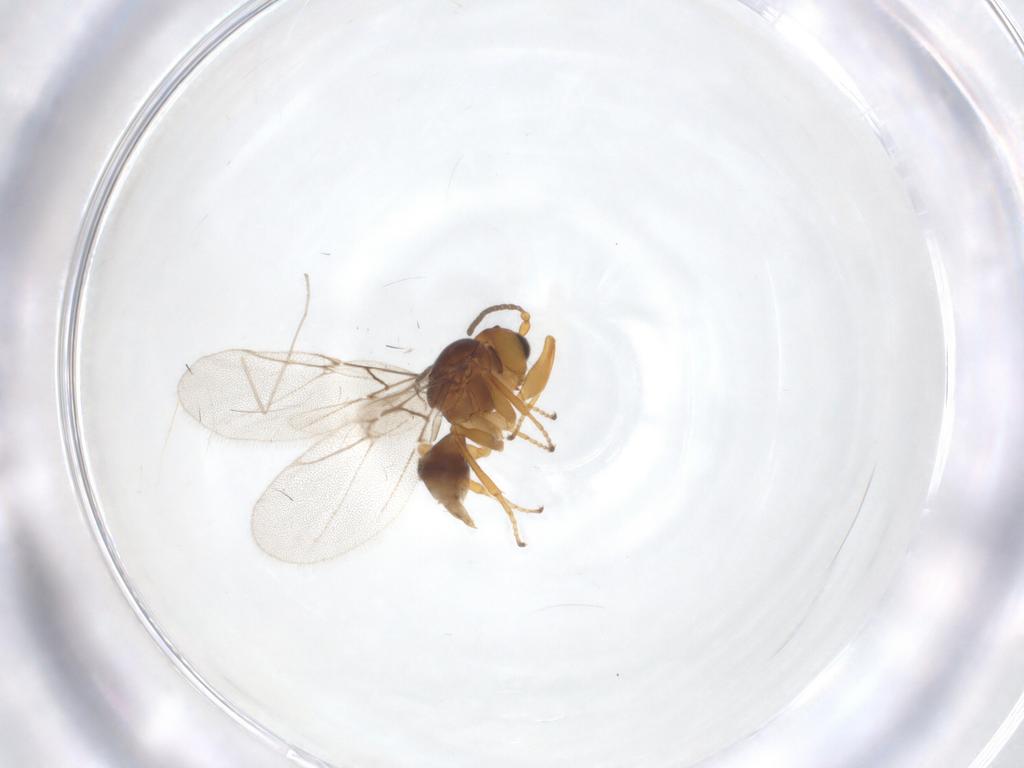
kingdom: Animalia
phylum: Arthropoda
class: Insecta
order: Hymenoptera
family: Cynipidae
